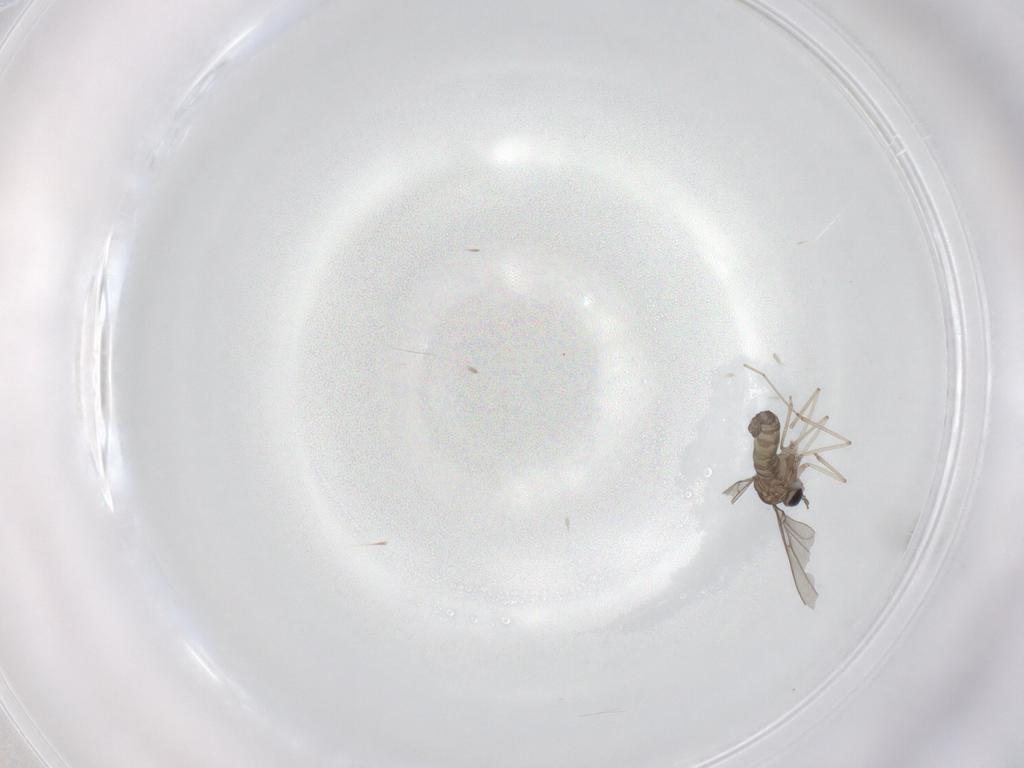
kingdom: Animalia
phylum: Arthropoda
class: Insecta
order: Diptera
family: Cecidomyiidae
